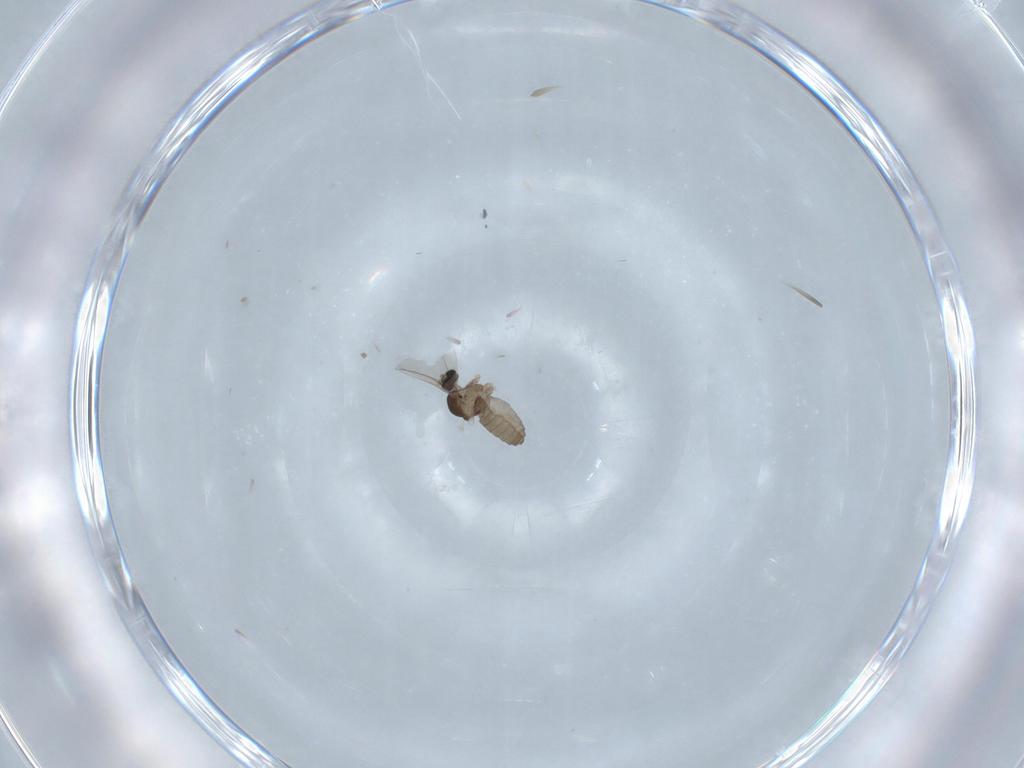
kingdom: Animalia
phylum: Arthropoda
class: Insecta
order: Diptera
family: Cecidomyiidae
